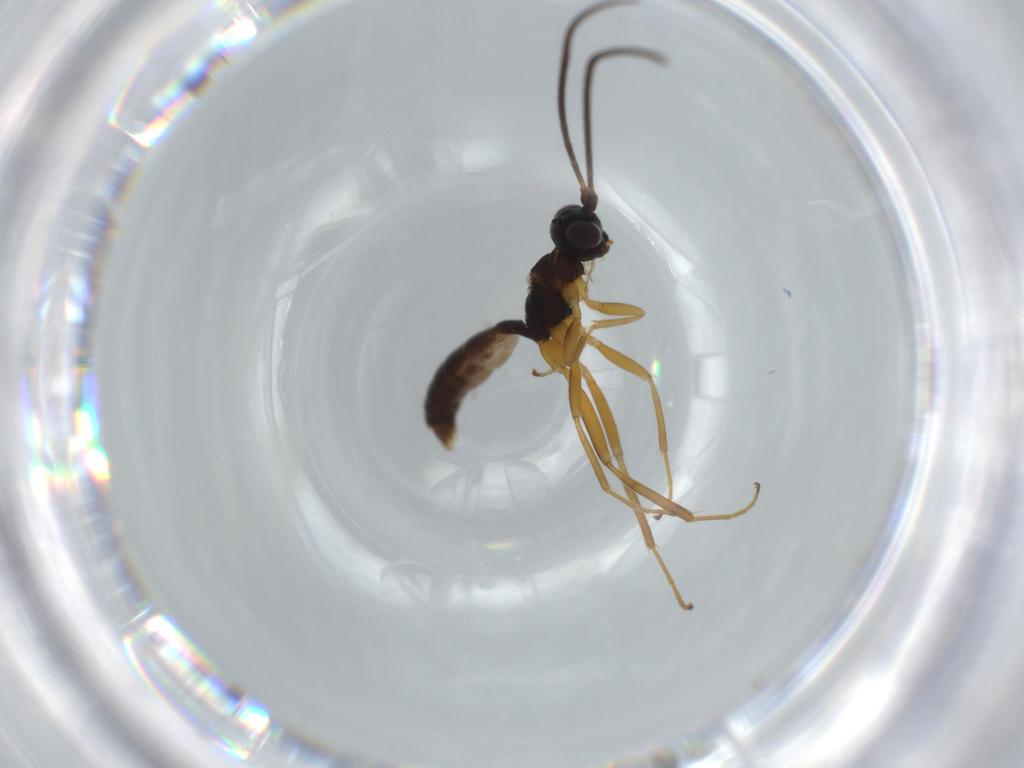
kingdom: Animalia
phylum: Arthropoda
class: Insecta
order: Hymenoptera
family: Ichneumonidae
